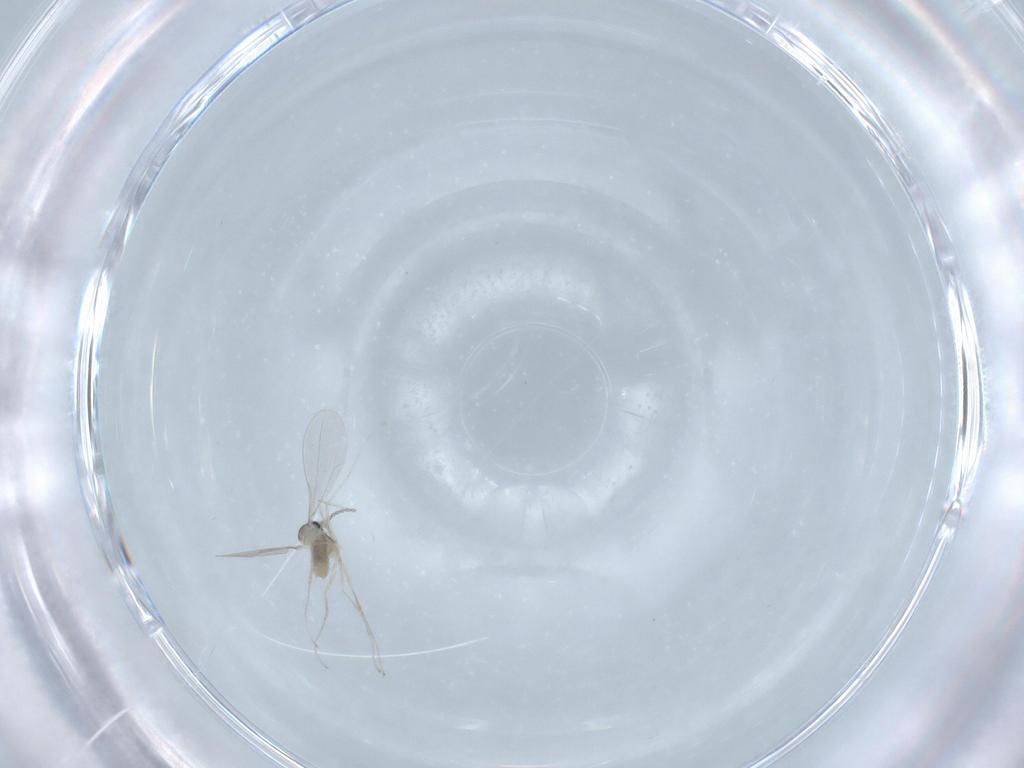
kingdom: Animalia
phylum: Arthropoda
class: Insecta
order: Diptera
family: Cecidomyiidae
